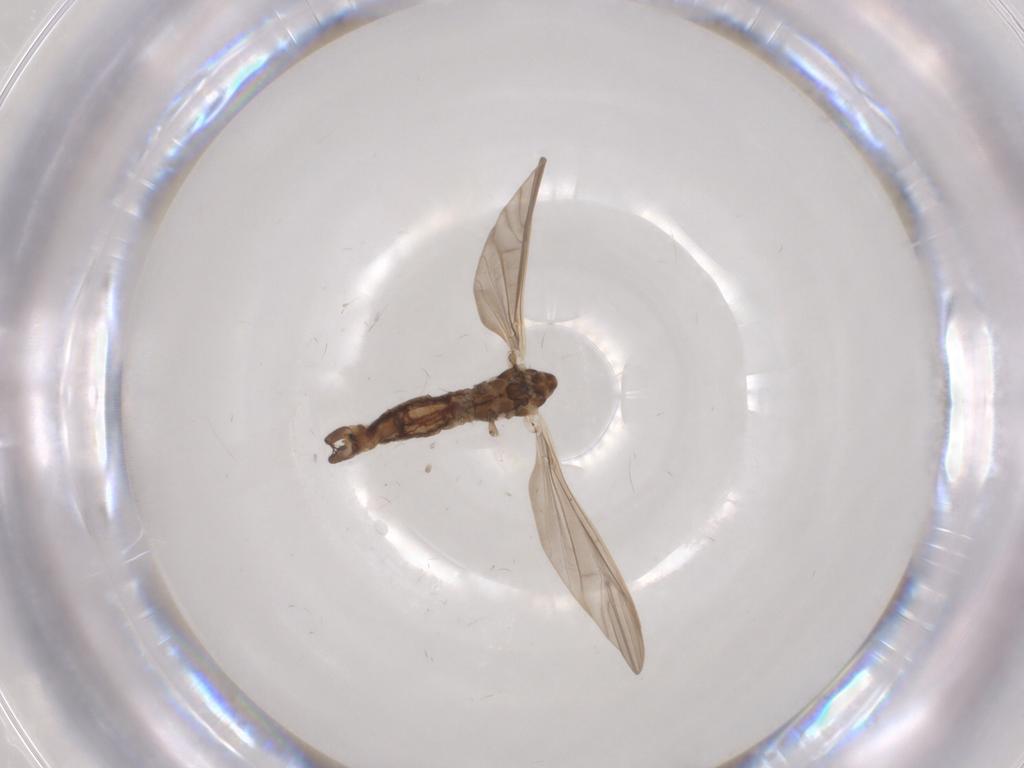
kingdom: Animalia
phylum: Arthropoda
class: Insecta
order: Diptera
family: Limoniidae
